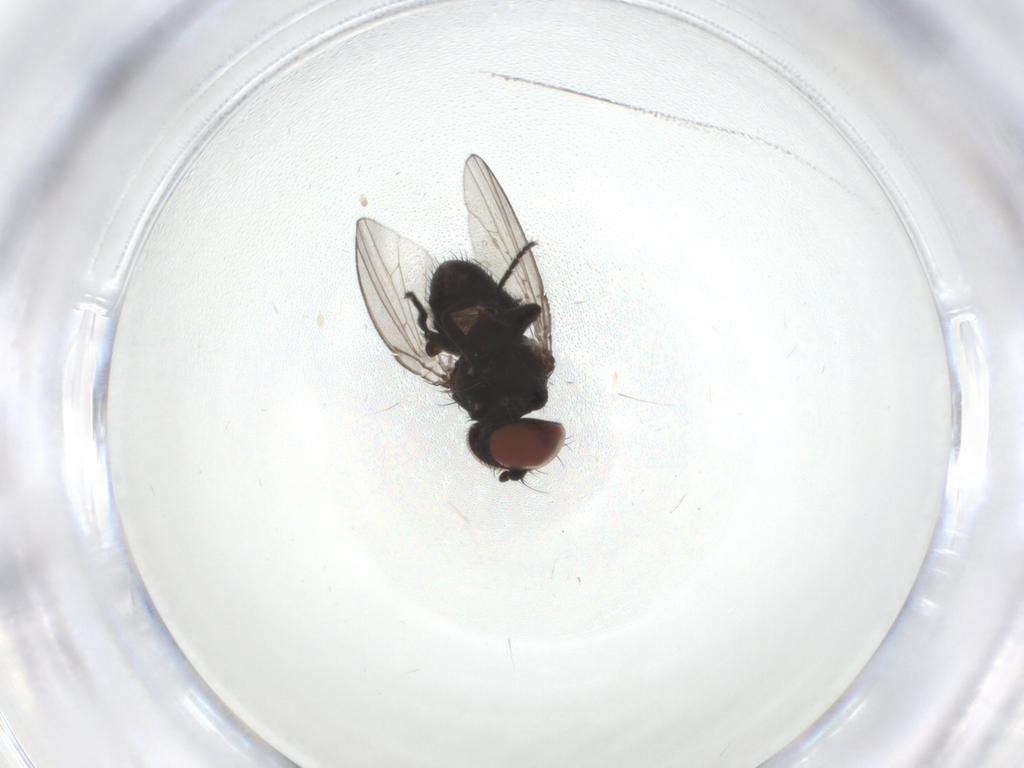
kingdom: Animalia
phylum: Arthropoda
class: Insecta
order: Diptera
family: Milichiidae
